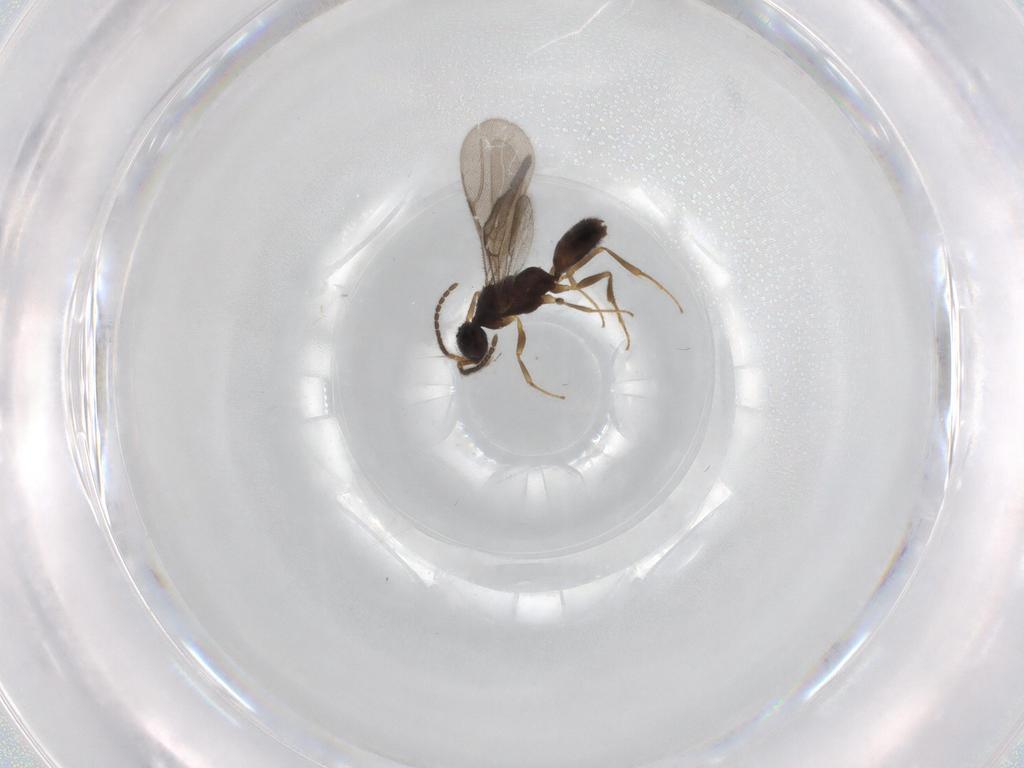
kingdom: Animalia
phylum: Arthropoda
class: Insecta
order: Hymenoptera
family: Bethylidae
